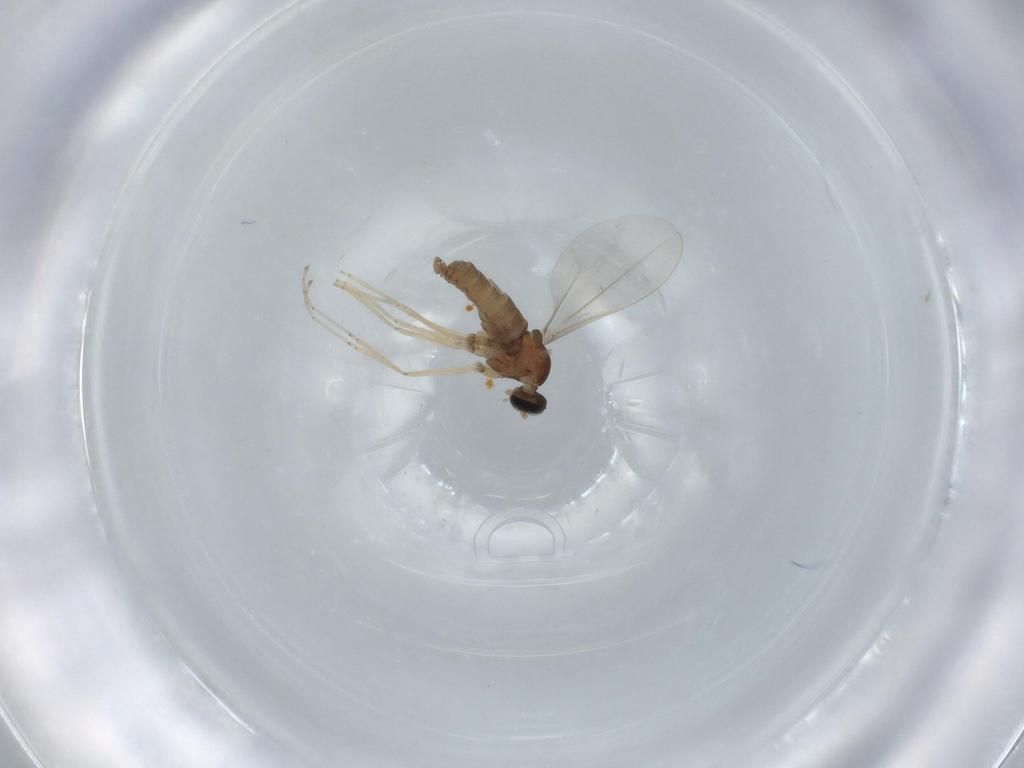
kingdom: Animalia
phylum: Arthropoda
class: Insecta
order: Diptera
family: Cecidomyiidae
